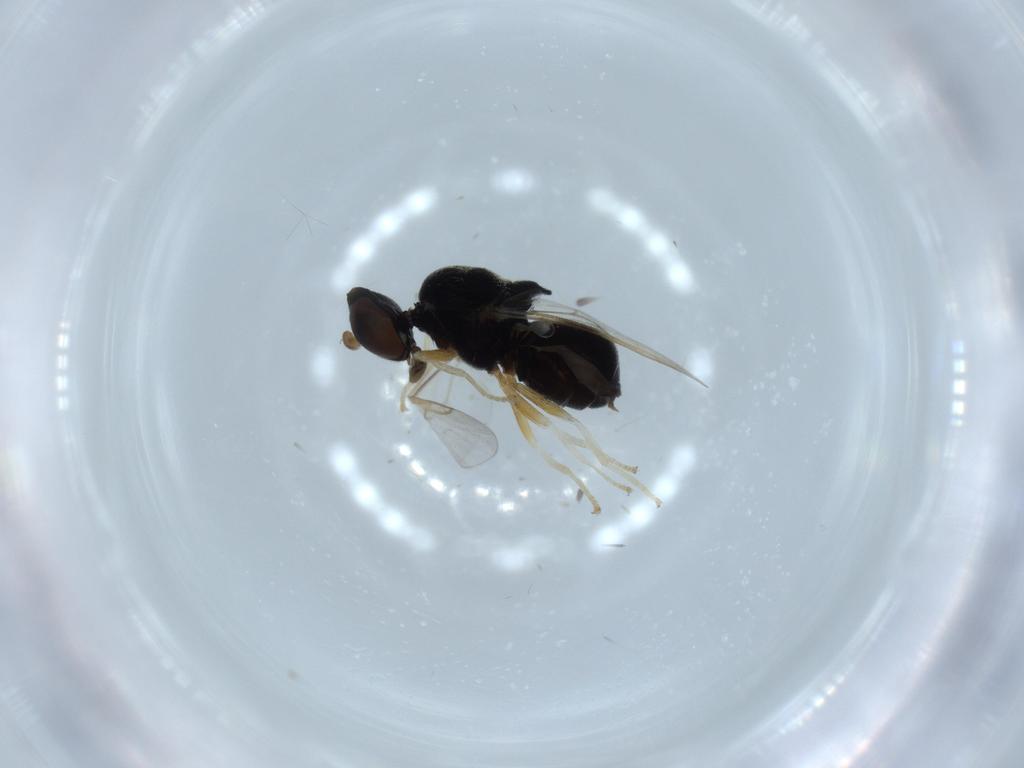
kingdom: Animalia
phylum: Arthropoda
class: Insecta
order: Diptera
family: Stratiomyidae
